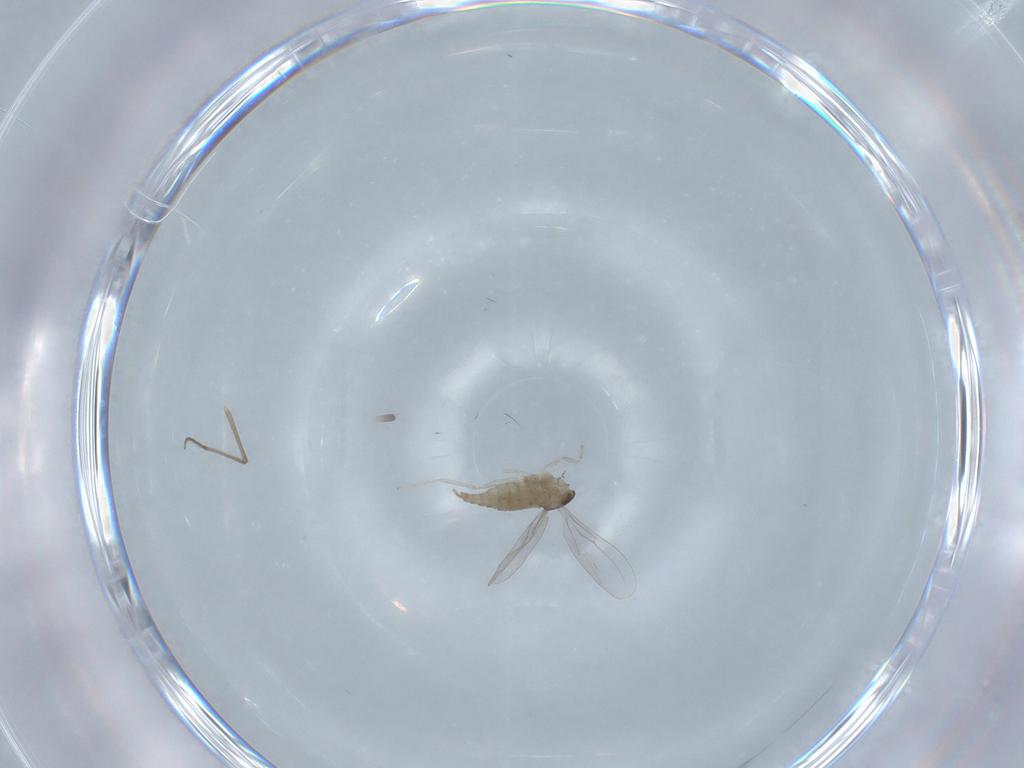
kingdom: Animalia
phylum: Arthropoda
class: Insecta
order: Diptera
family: Cecidomyiidae
